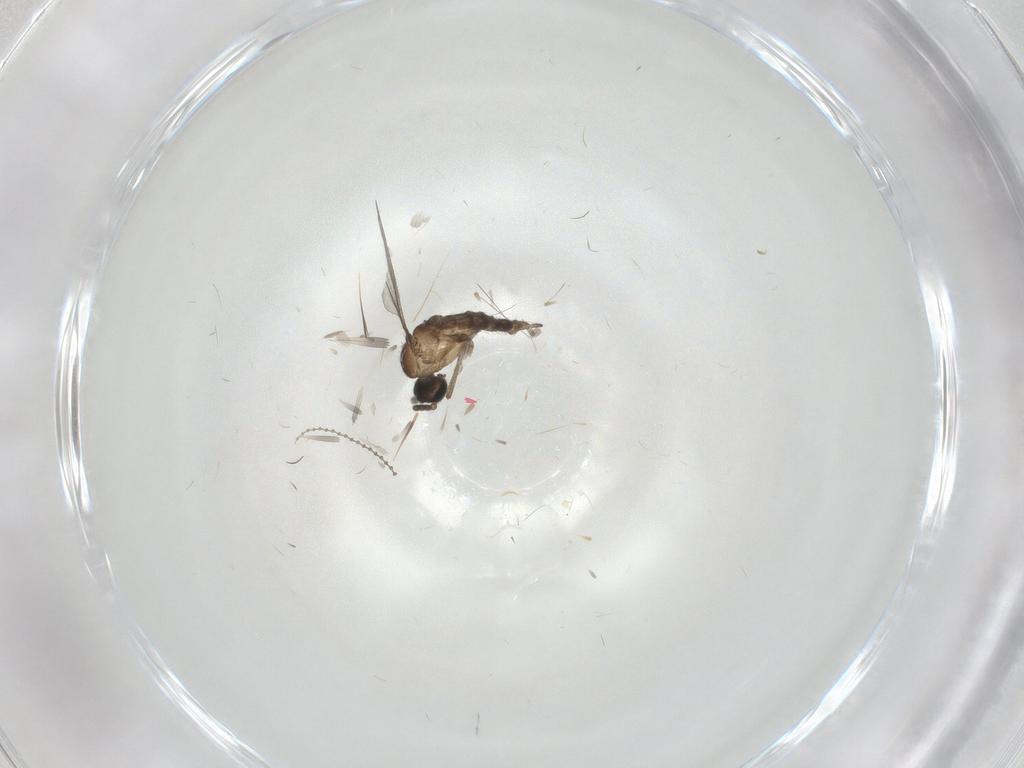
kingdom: Animalia
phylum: Arthropoda
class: Insecta
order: Diptera
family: Sciaridae
